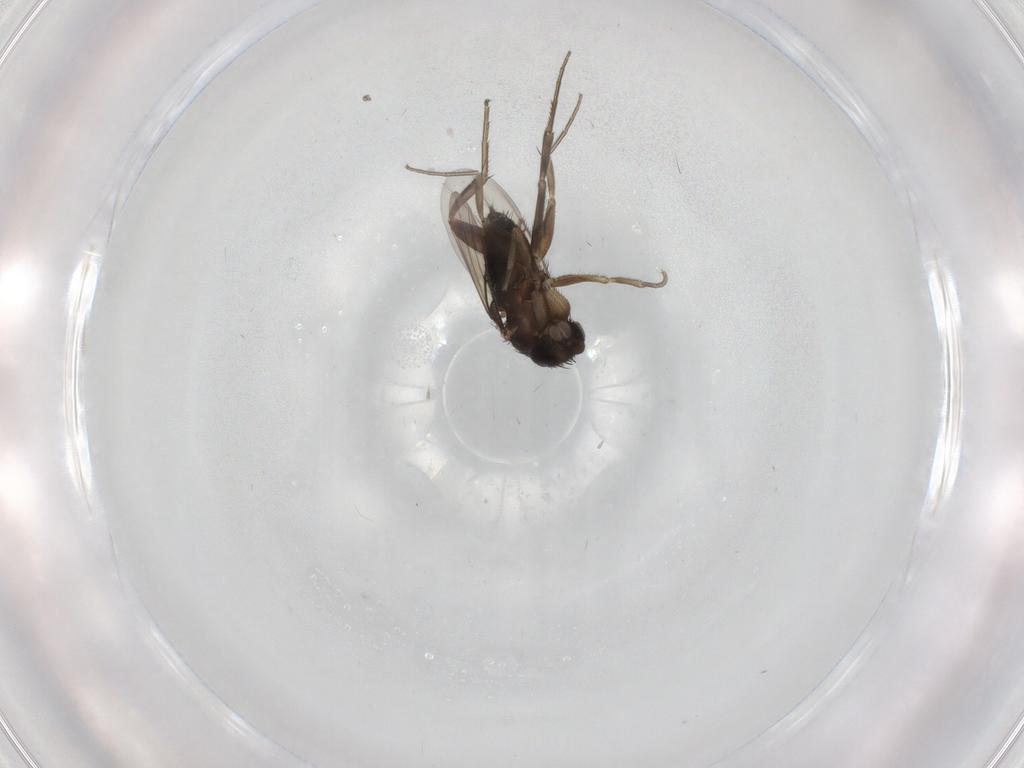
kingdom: Animalia
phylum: Arthropoda
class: Insecta
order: Diptera
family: Phoridae
